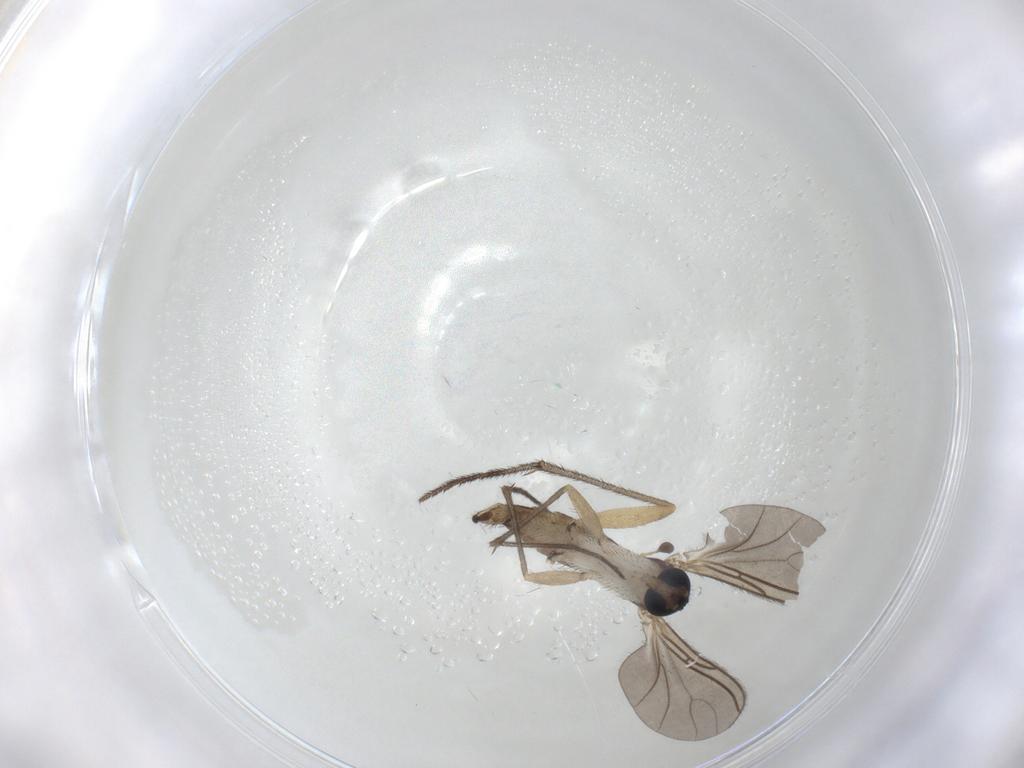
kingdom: Animalia
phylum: Arthropoda
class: Insecta
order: Diptera
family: Sciaridae
